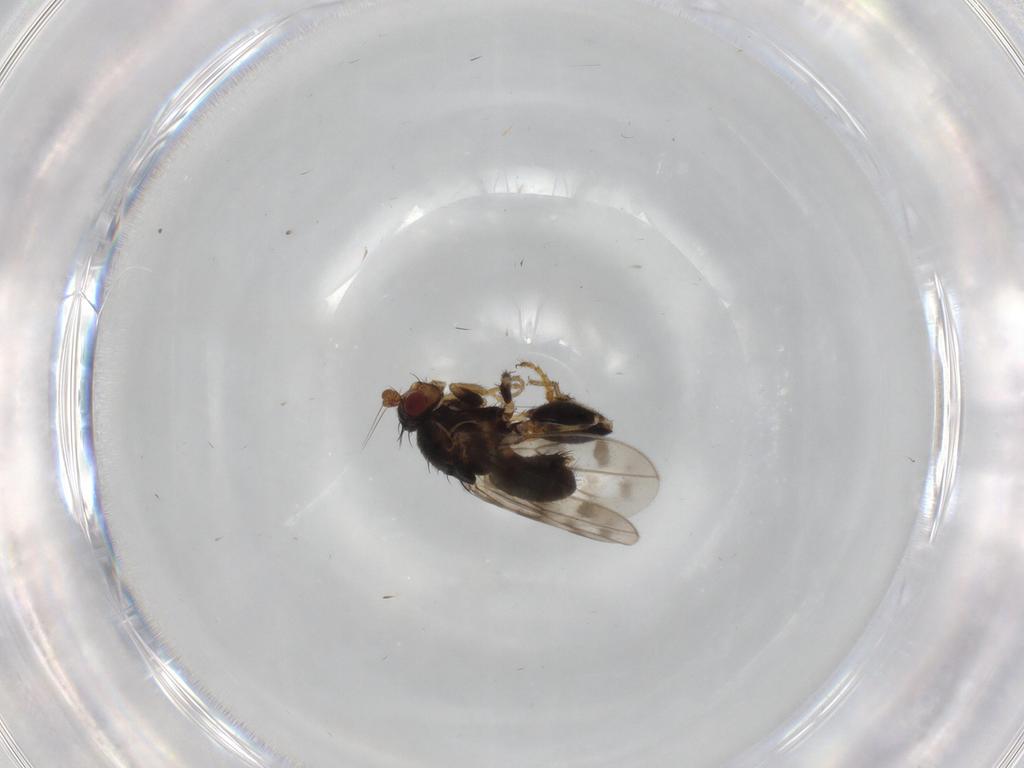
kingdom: Animalia
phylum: Arthropoda
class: Insecta
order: Diptera
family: Sphaeroceridae
